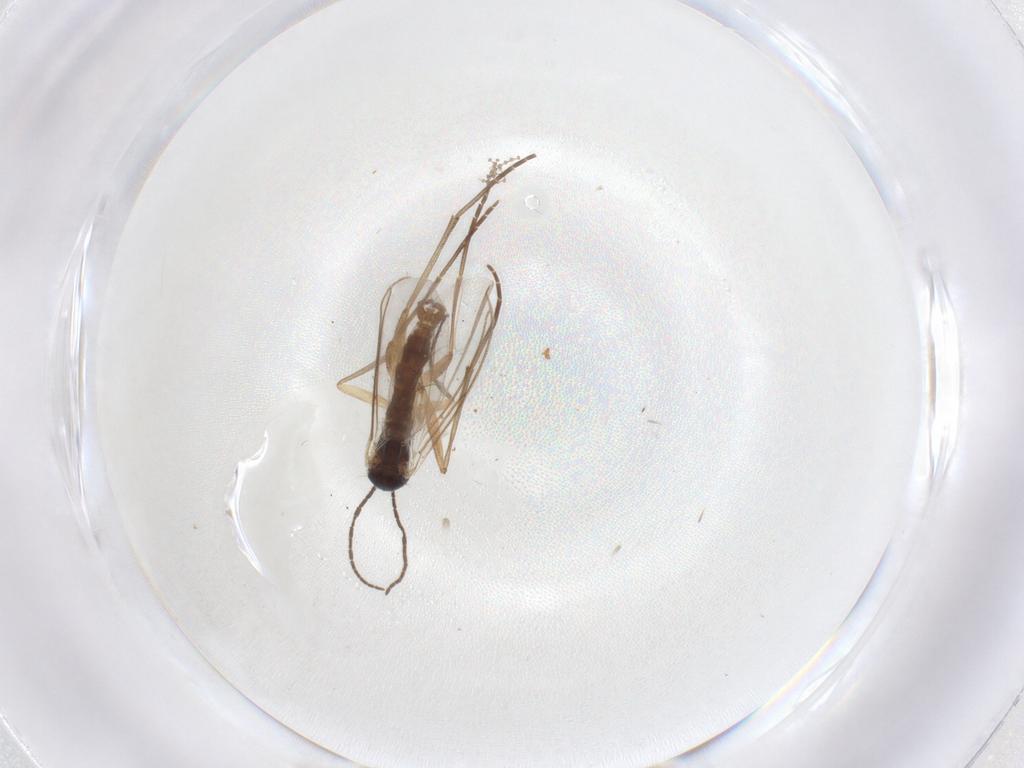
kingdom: Animalia
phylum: Arthropoda
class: Insecta
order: Diptera
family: Sciaridae
